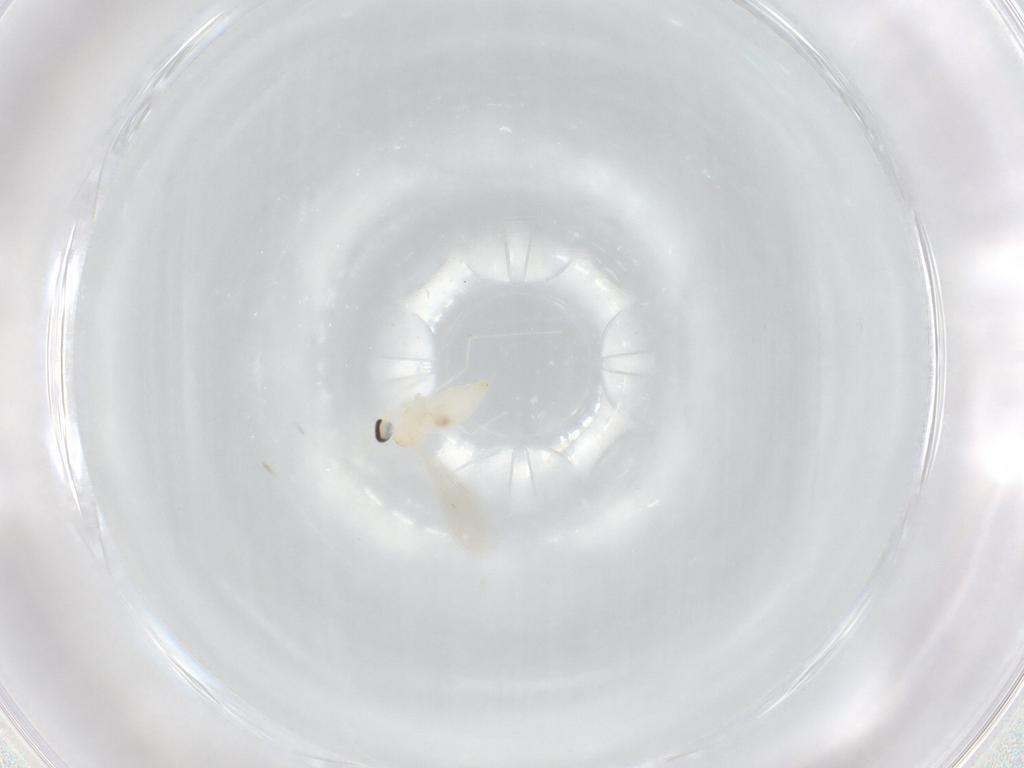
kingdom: Animalia
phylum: Arthropoda
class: Insecta
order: Diptera
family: Cecidomyiidae
